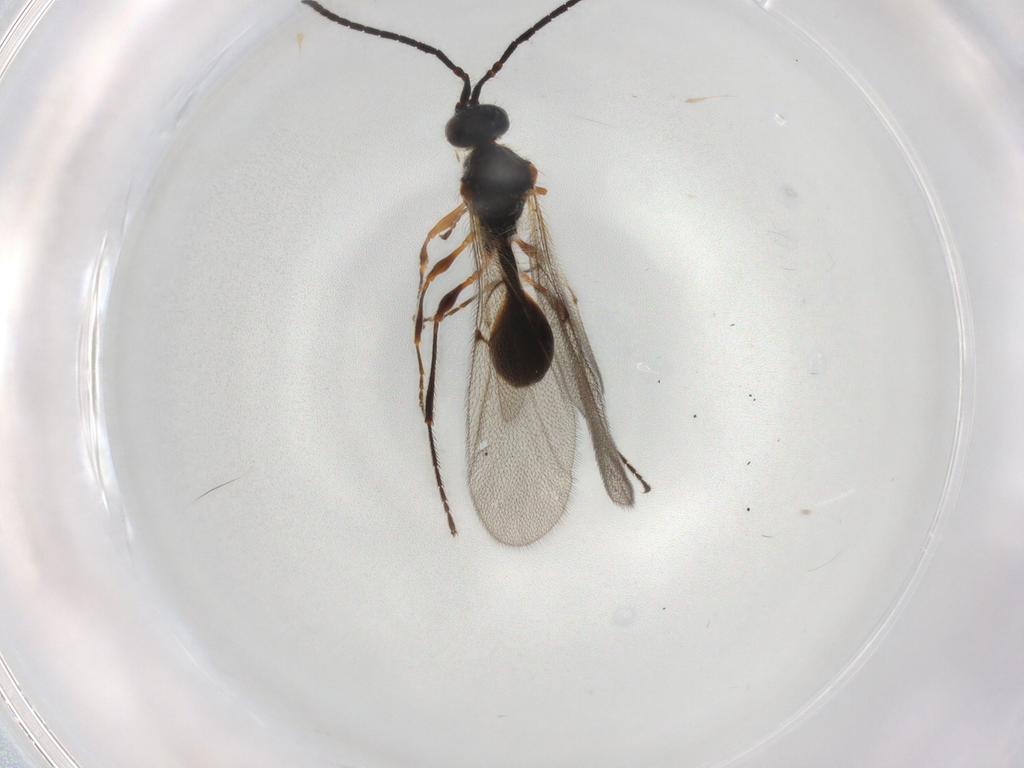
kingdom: Animalia
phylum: Arthropoda
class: Insecta
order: Hymenoptera
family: Diapriidae
